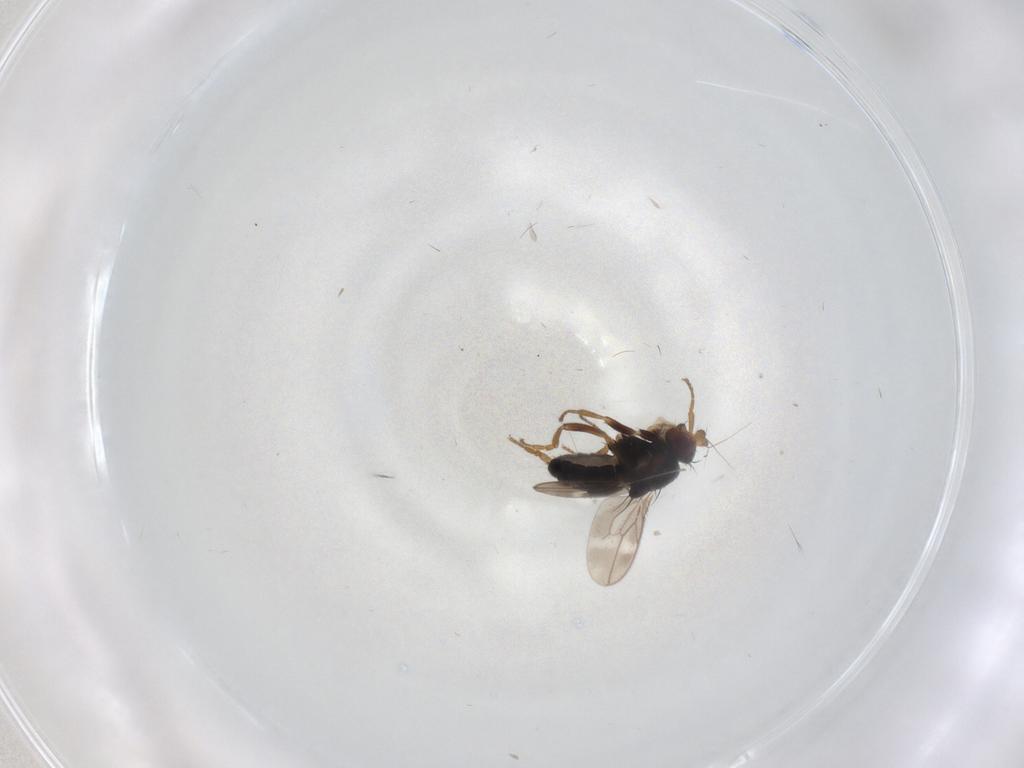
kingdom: Animalia
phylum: Arthropoda
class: Insecta
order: Diptera
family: Sphaeroceridae
